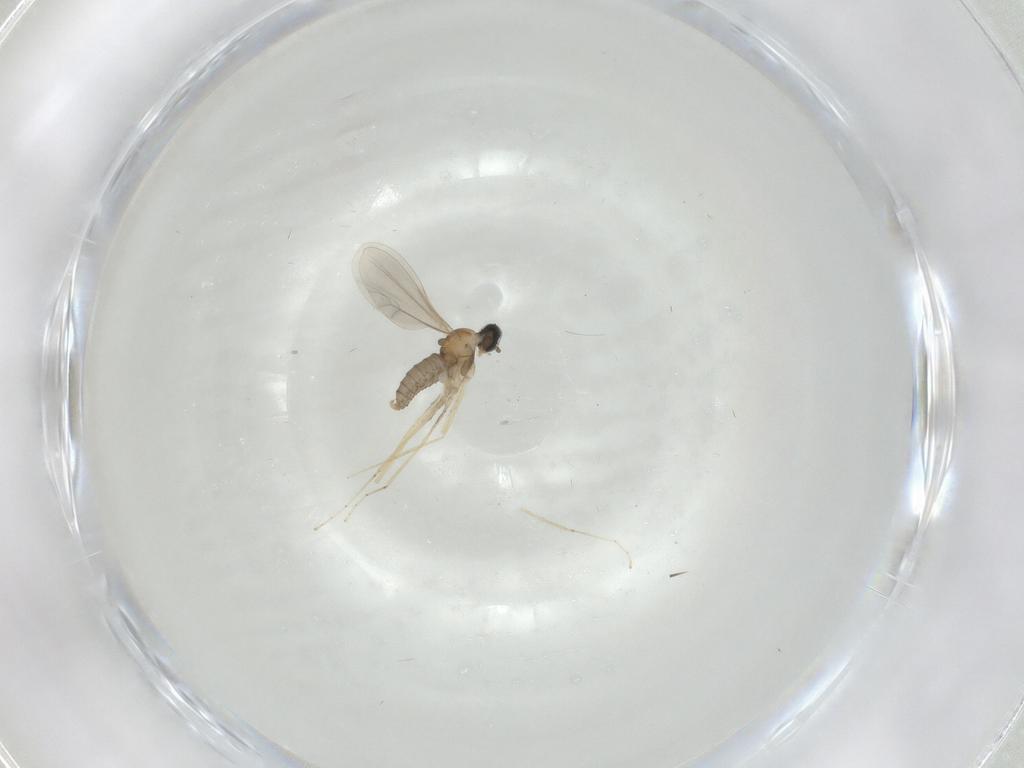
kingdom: Animalia
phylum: Arthropoda
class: Insecta
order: Diptera
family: Cecidomyiidae
